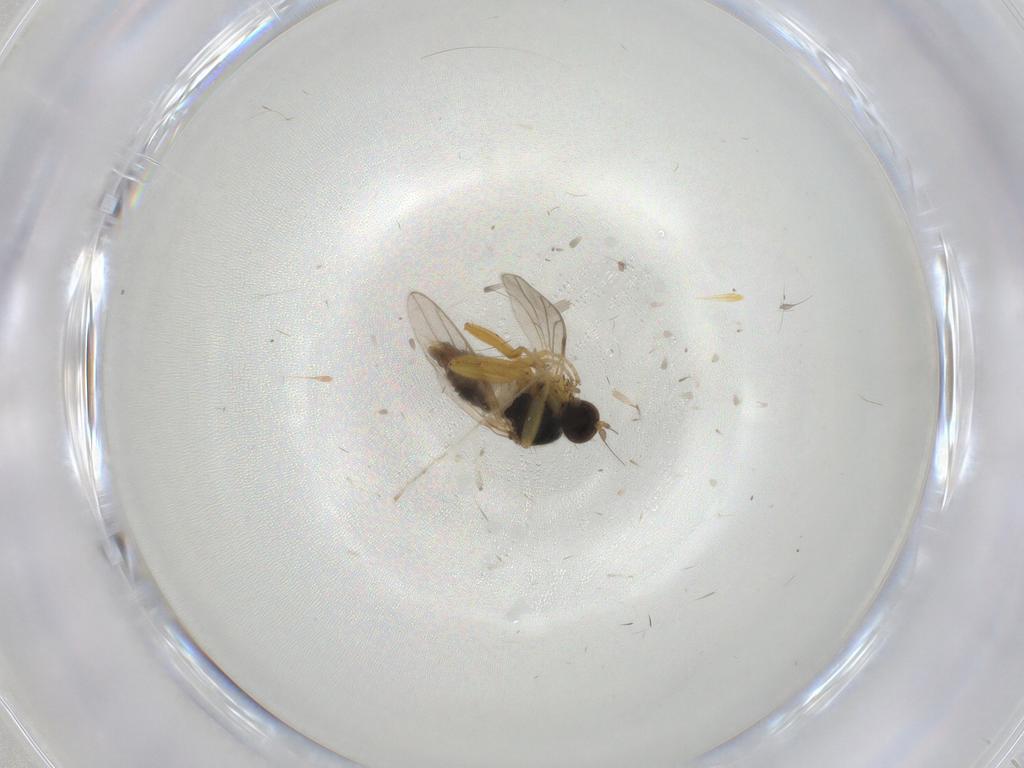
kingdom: Animalia
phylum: Arthropoda
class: Insecta
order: Diptera
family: Hybotidae
